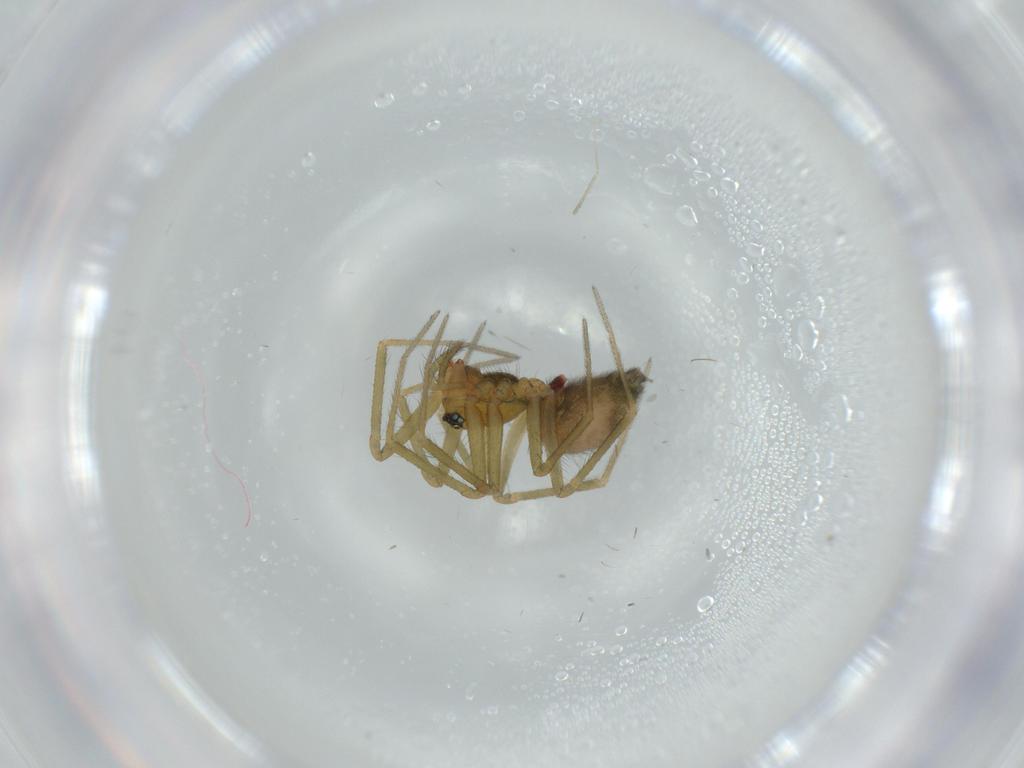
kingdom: Animalia
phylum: Arthropoda
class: Arachnida
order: Araneae
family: Linyphiidae
